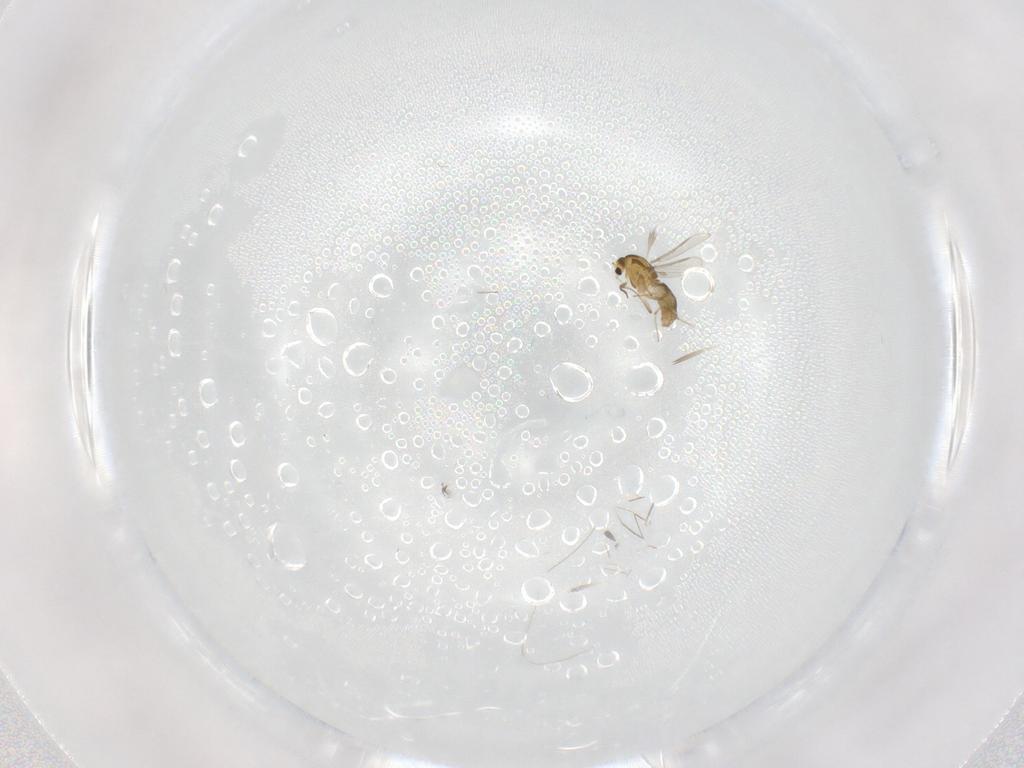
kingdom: Animalia
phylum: Arthropoda
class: Insecta
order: Diptera
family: Chironomidae
